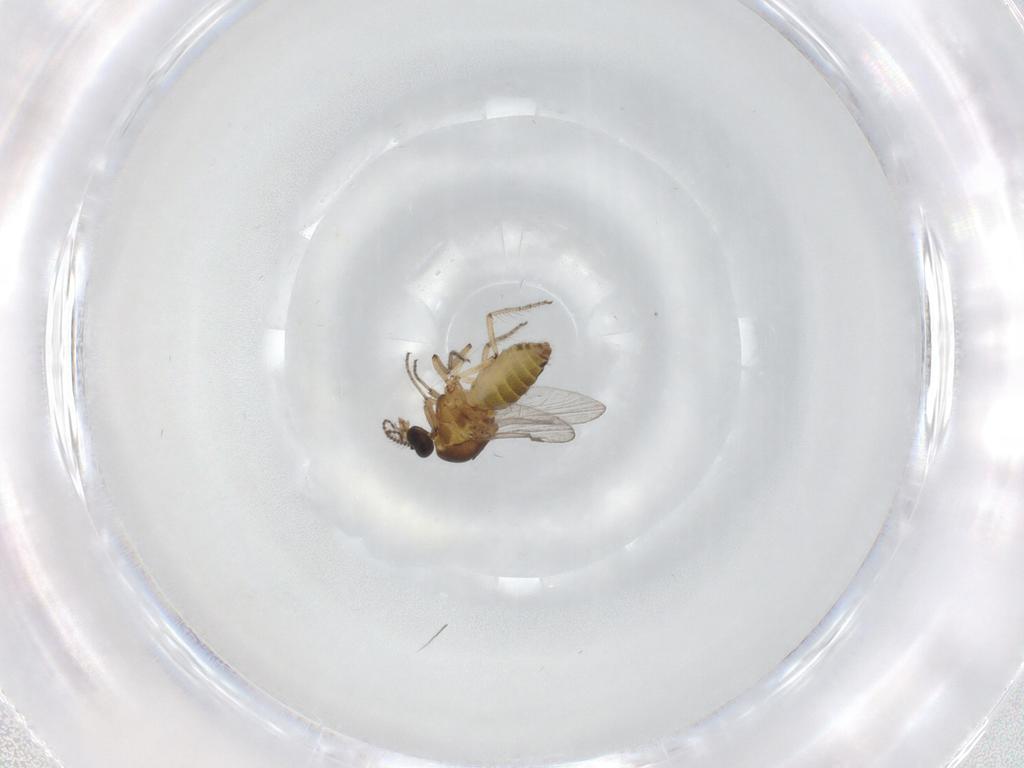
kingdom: Animalia
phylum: Arthropoda
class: Insecta
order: Diptera
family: Ceratopogonidae
